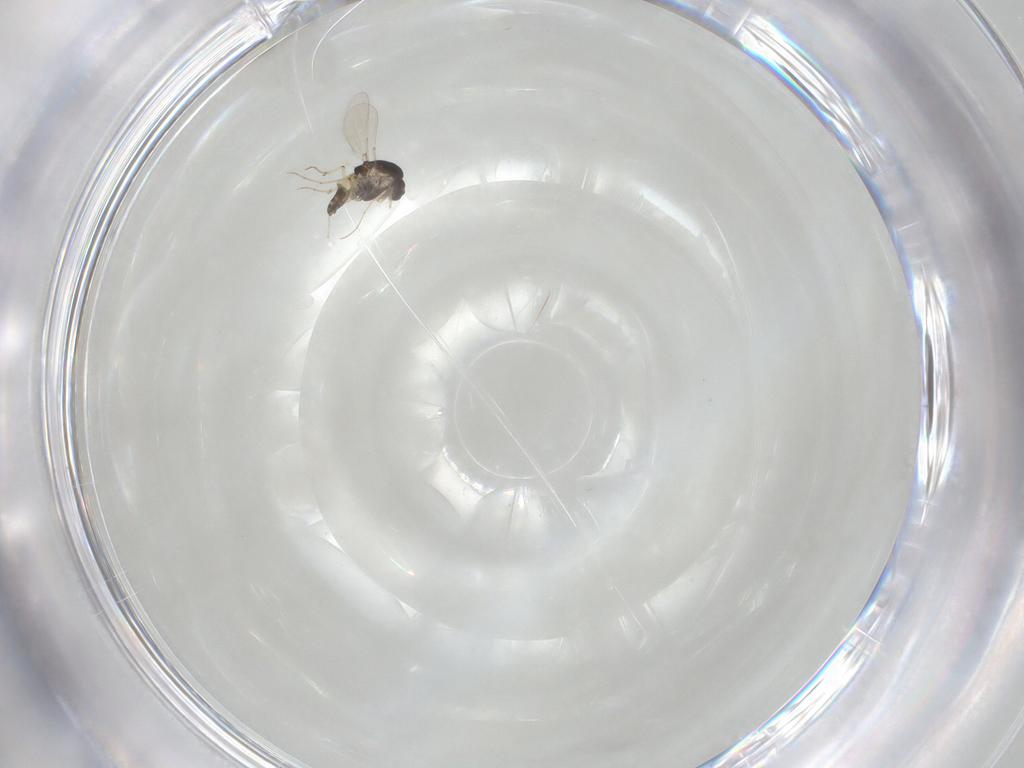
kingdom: Animalia
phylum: Arthropoda
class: Insecta
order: Diptera
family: Chironomidae
